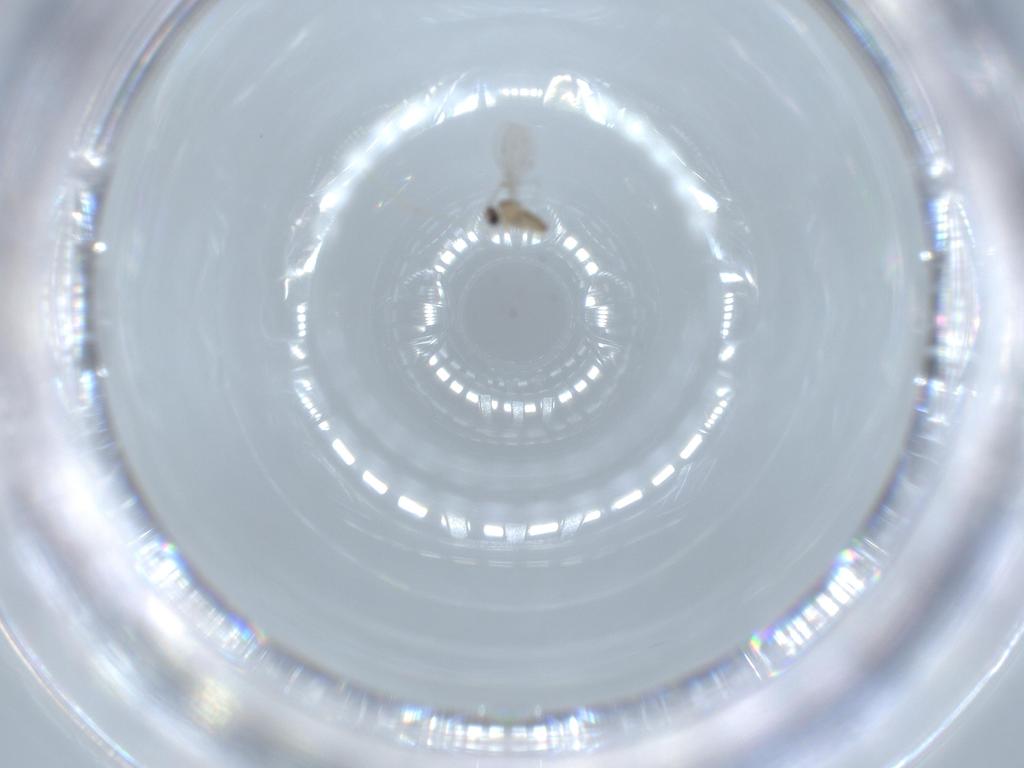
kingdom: Animalia
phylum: Arthropoda
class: Insecta
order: Diptera
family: Cecidomyiidae
